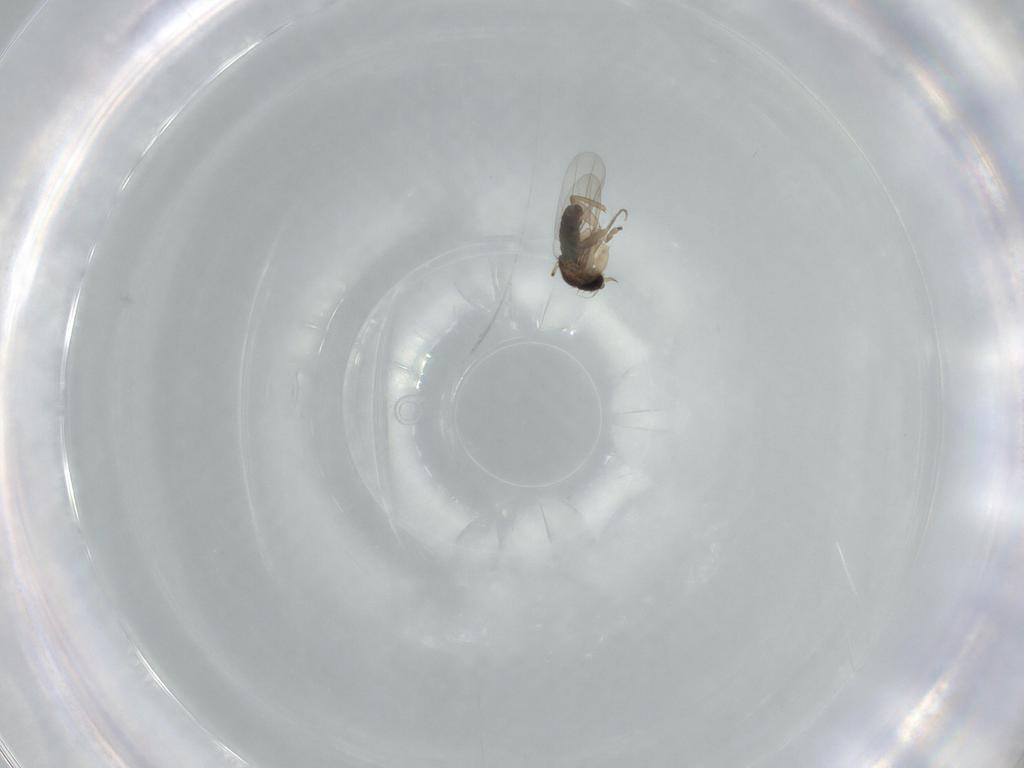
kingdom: Animalia
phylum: Arthropoda
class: Insecta
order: Diptera
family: Phoridae
